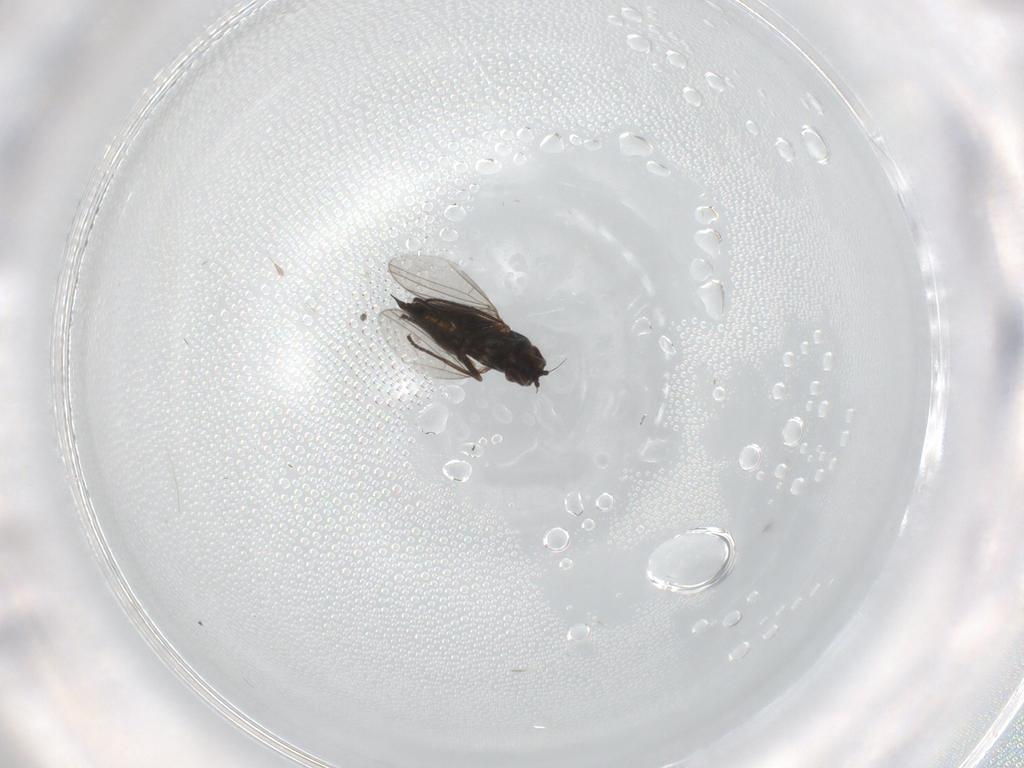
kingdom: Animalia
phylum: Arthropoda
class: Insecta
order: Diptera
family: Dolichopodidae
